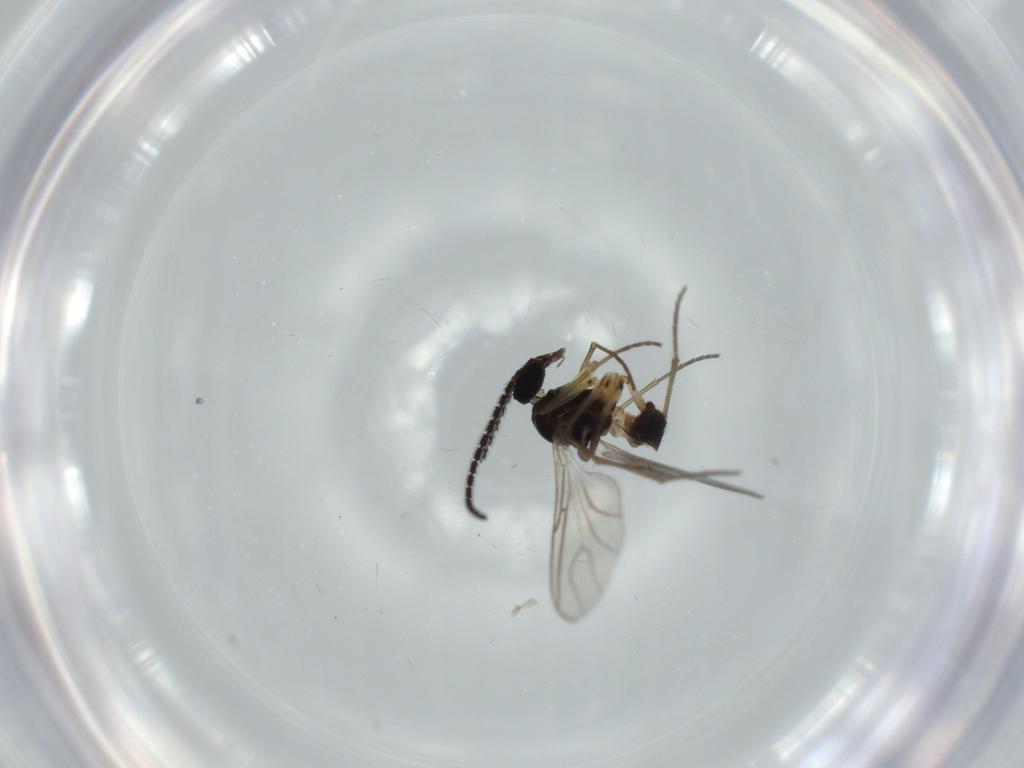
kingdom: Animalia
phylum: Arthropoda
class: Insecta
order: Diptera
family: Sciaridae
